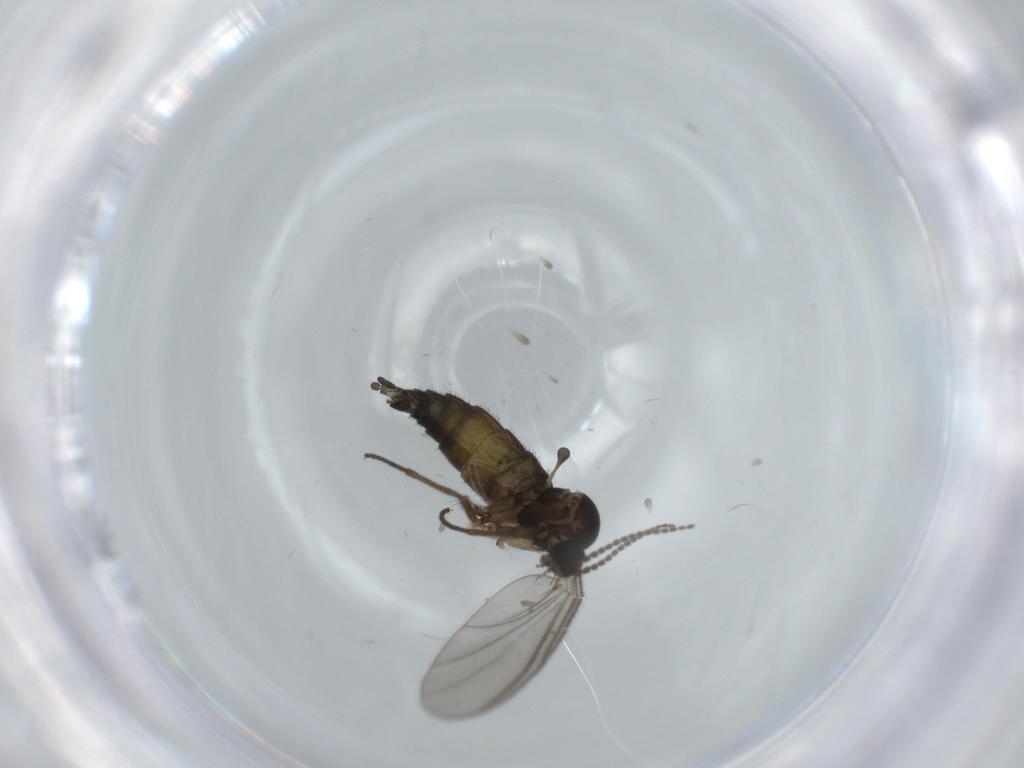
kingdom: Animalia
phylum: Arthropoda
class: Insecta
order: Diptera
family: Sciaridae
